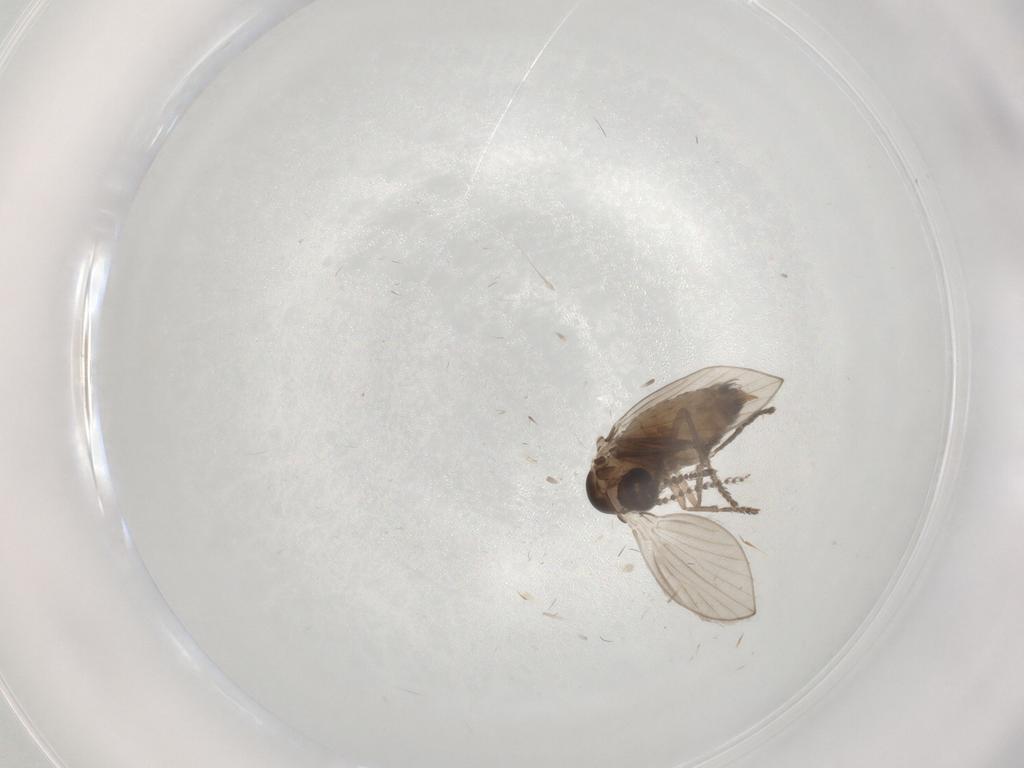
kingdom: Animalia
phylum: Arthropoda
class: Insecta
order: Diptera
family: Psychodidae
